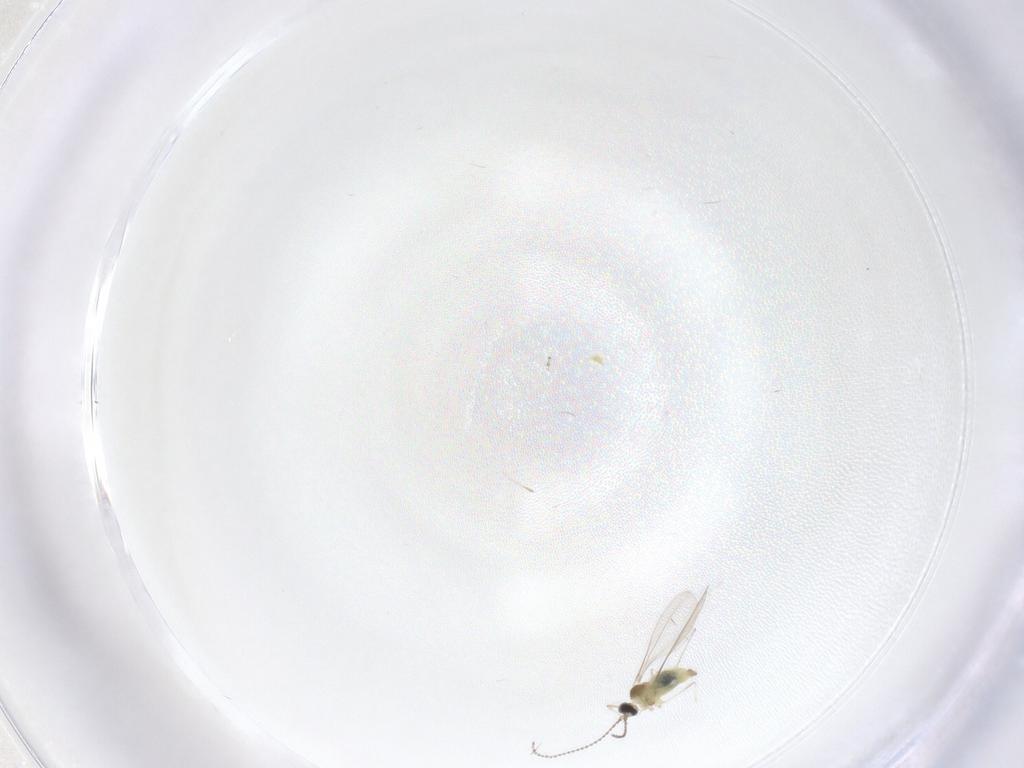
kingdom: Animalia
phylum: Arthropoda
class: Insecta
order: Diptera
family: Cecidomyiidae
